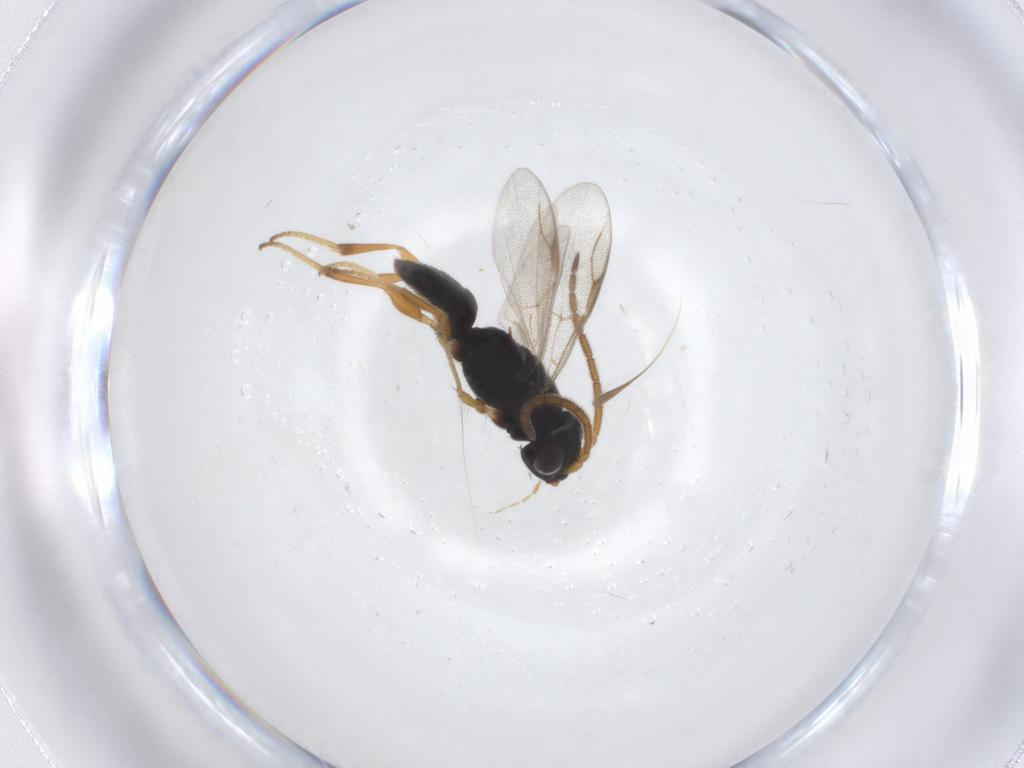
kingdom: Animalia
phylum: Arthropoda
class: Insecta
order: Hymenoptera
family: Dryinidae
